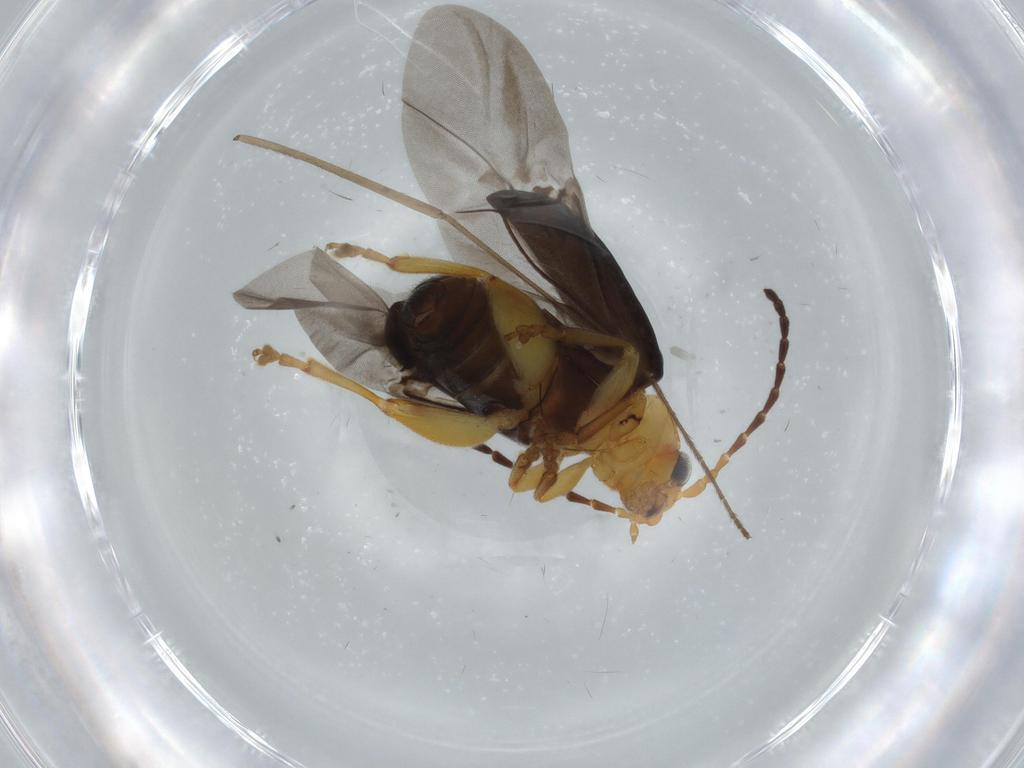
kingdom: Animalia
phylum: Arthropoda
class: Insecta
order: Coleoptera
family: Chrysomelidae
